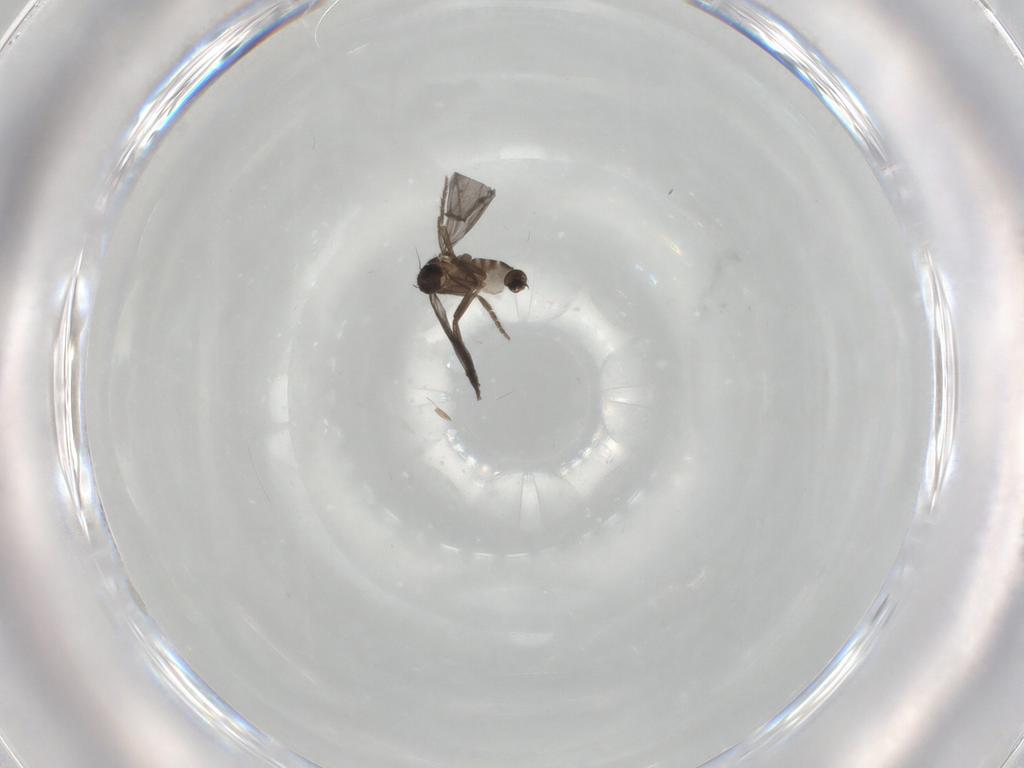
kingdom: Animalia
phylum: Arthropoda
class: Insecta
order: Diptera
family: Phoridae
